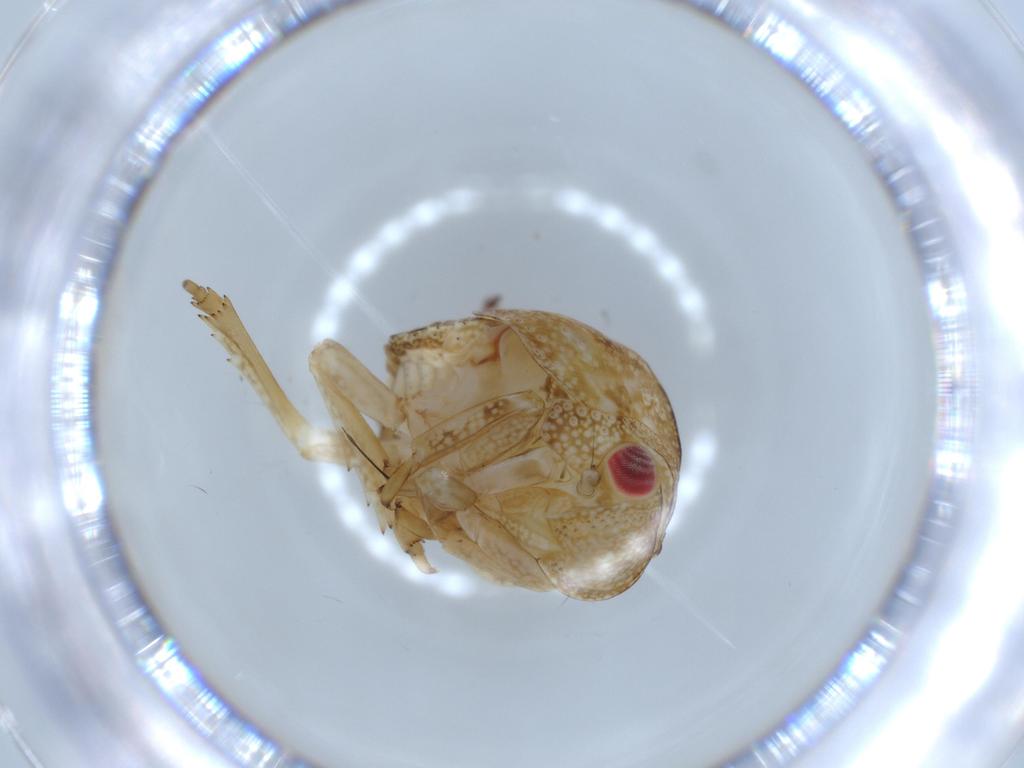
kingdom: Animalia
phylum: Arthropoda
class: Insecta
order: Hemiptera
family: Acanaloniidae
